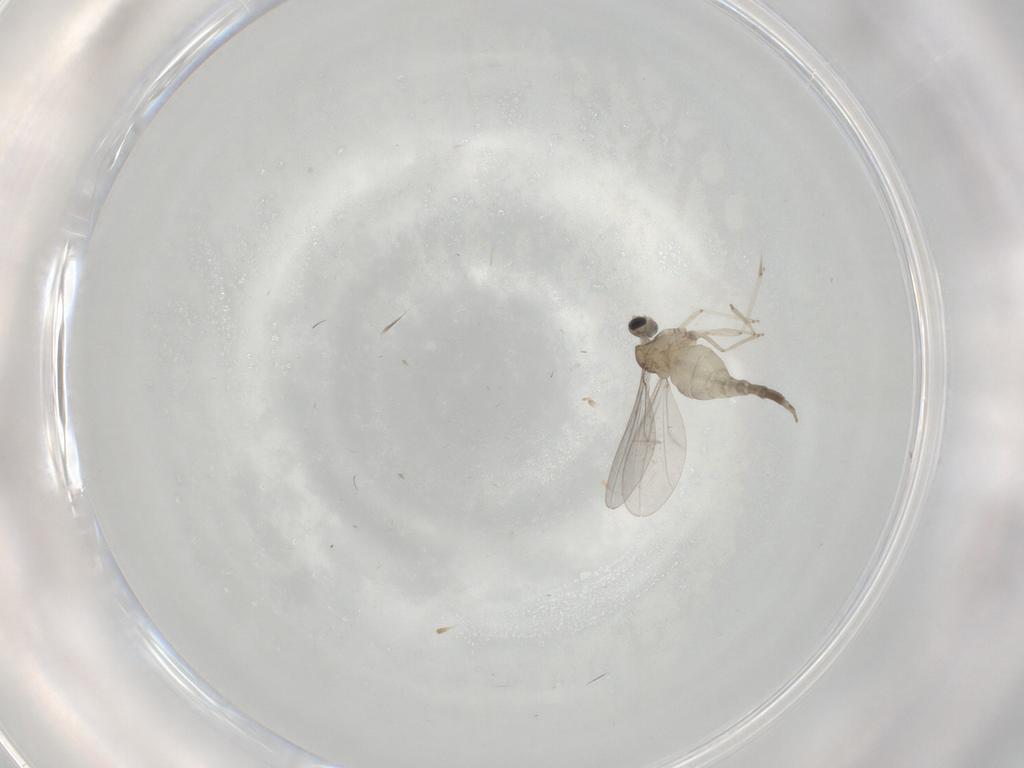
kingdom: Animalia
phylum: Arthropoda
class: Insecta
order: Diptera
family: Cecidomyiidae
